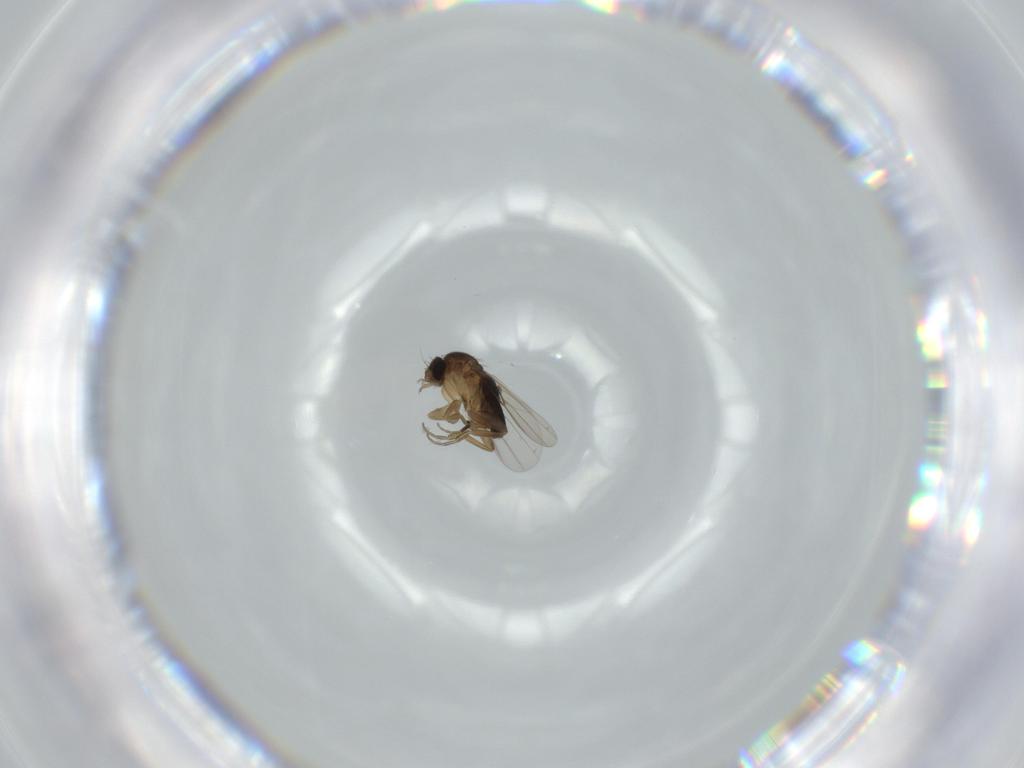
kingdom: Animalia
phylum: Arthropoda
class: Insecta
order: Diptera
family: Phoridae
